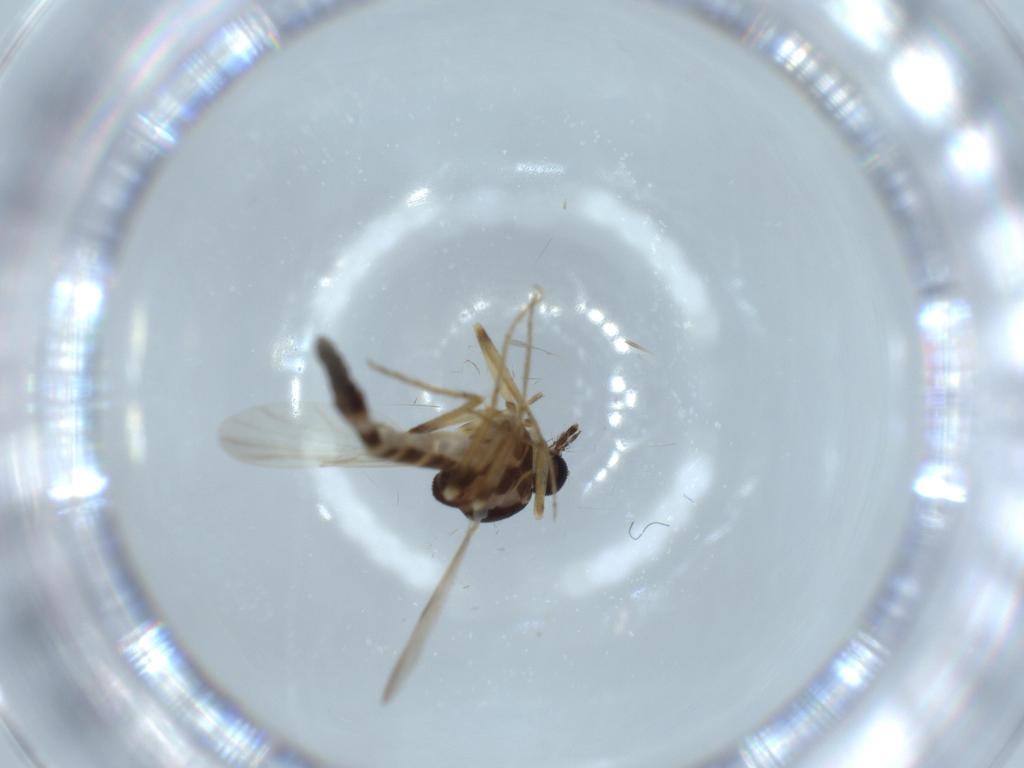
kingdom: Animalia
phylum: Arthropoda
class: Insecta
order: Diptera
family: Ceratopogonidae
